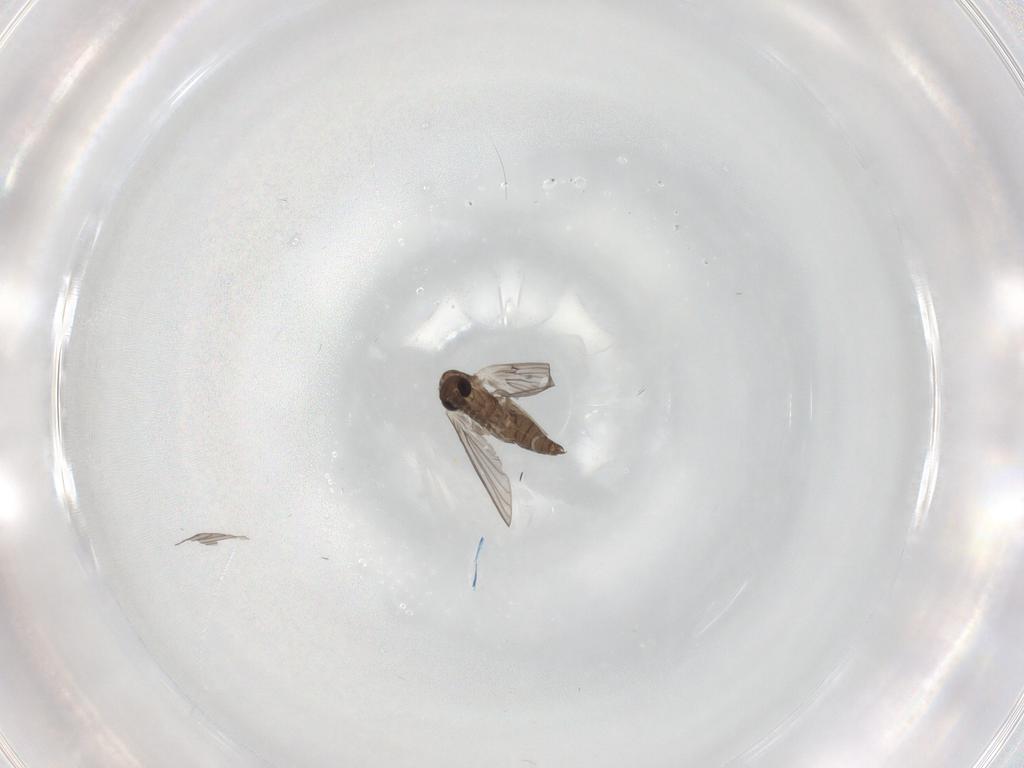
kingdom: Animalia
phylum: Arthropoda
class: Insecta
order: Diptera
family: Drosophilidae
